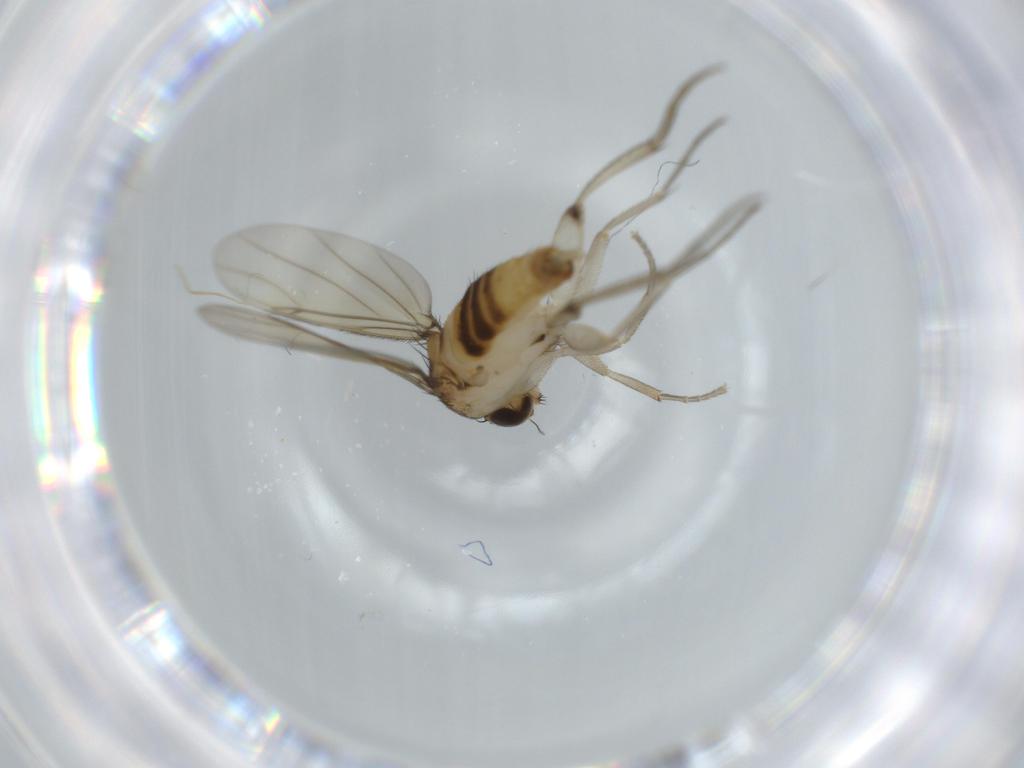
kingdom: Animalia
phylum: Arthropoda
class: Insecta
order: Diptera
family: Phoridae
